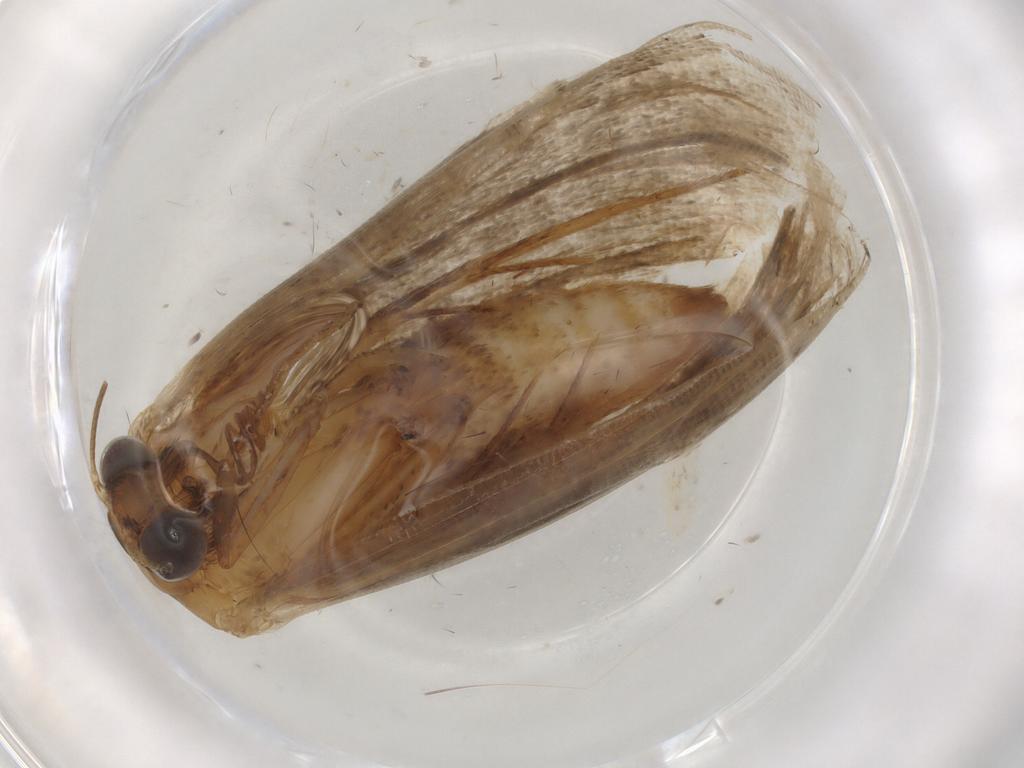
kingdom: Animalia
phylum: Arthropoda
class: Insecta
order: Lepidoptera
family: Erebidae
